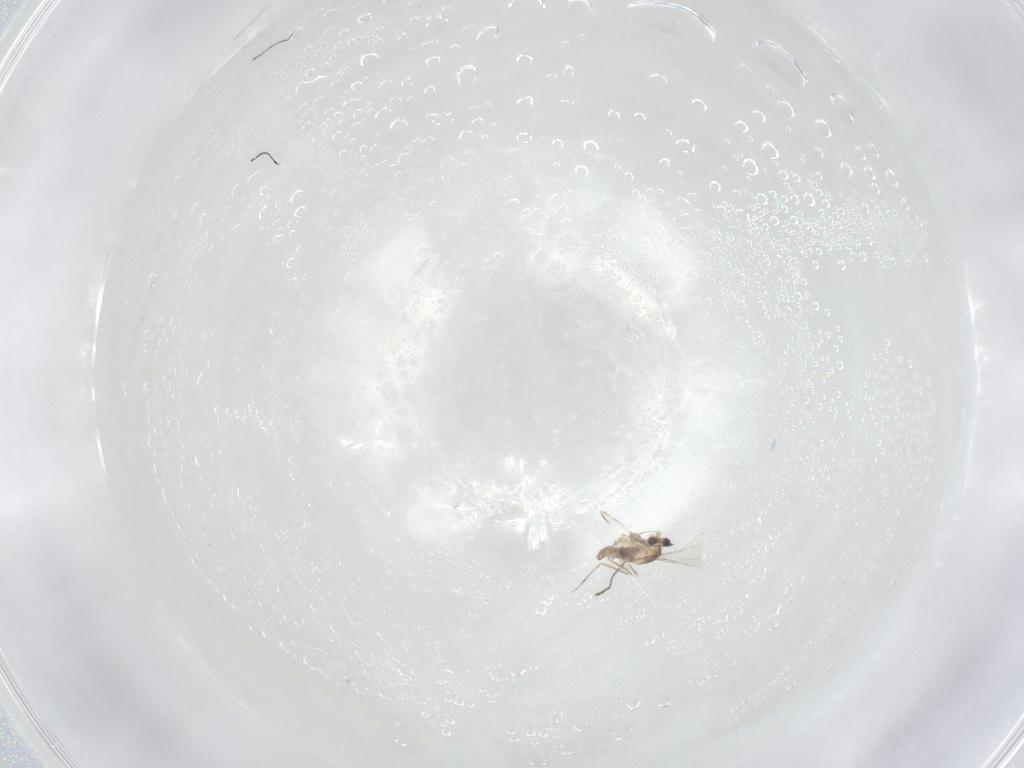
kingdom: Animalia
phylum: Arthropoda
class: Insecta
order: Diptera
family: Cecidomyiidae
